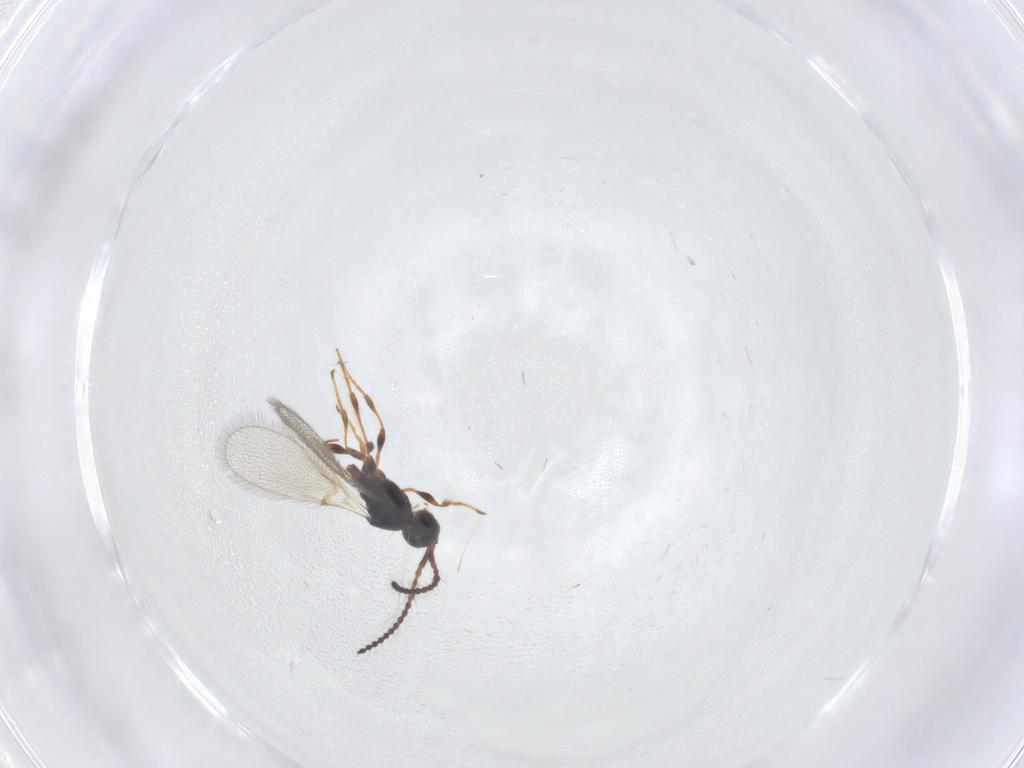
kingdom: Animalia
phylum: Arthropoda
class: Insecta
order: Hymenoptera
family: Diapriidae
